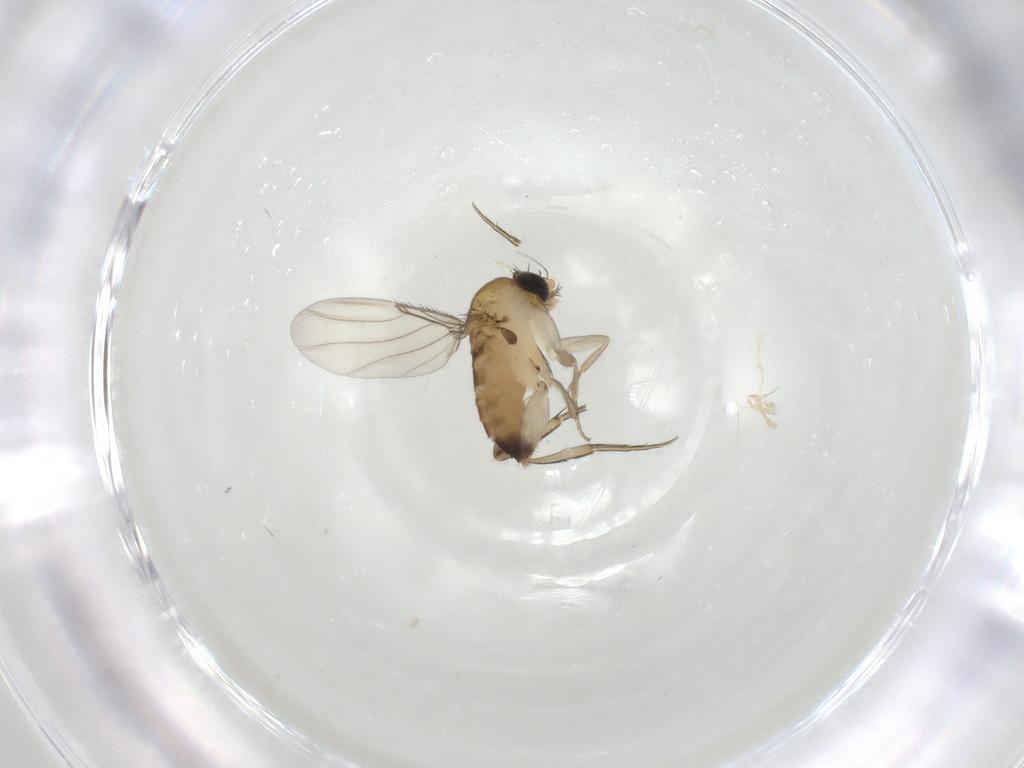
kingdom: Animalia
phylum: Arthropoda
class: Insecta
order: Diptera
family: Phoridae
